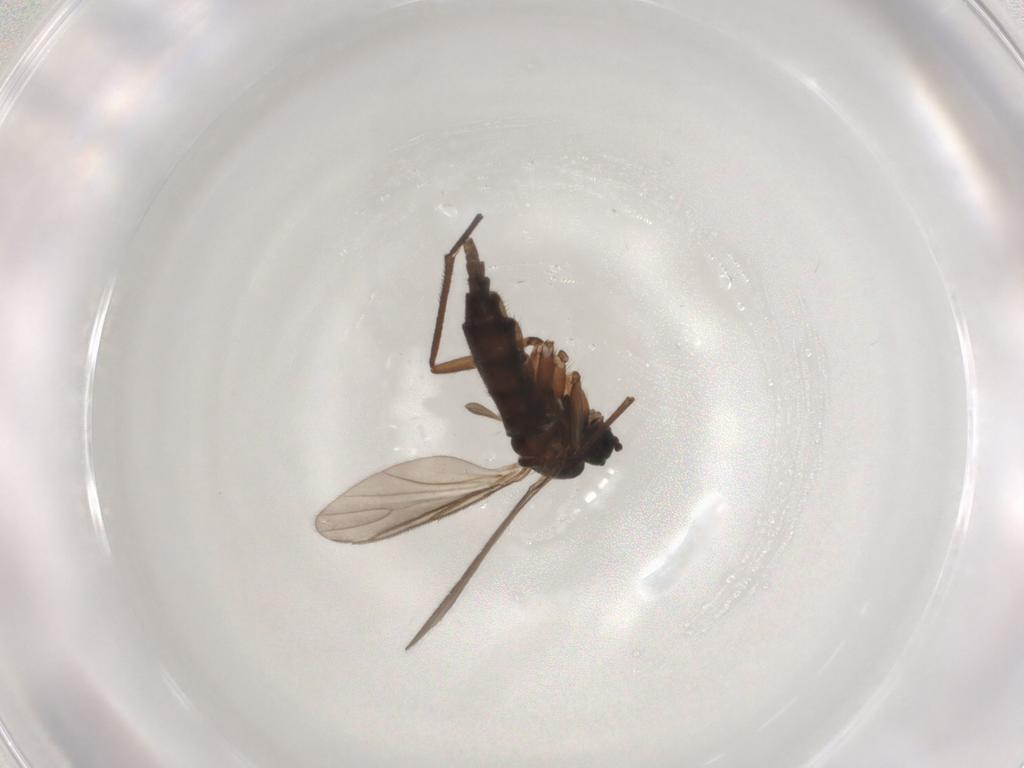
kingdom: Animalia
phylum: Arthropoda
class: Insecta
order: Diptera
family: Sciaridae
